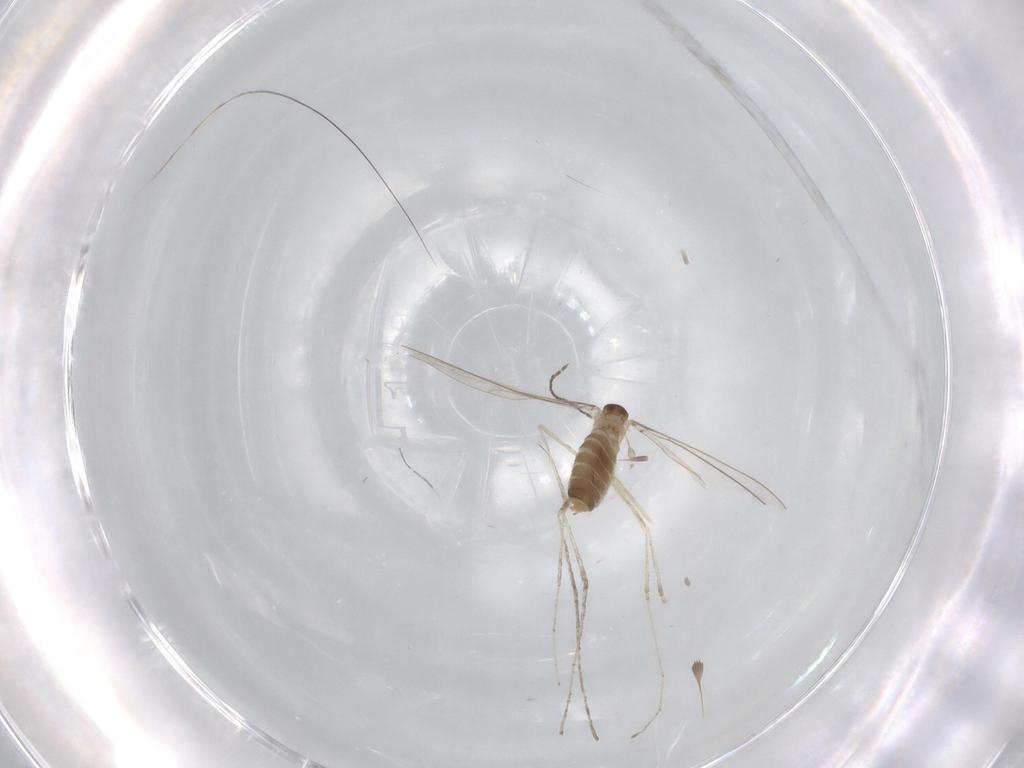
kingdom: Animalia
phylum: Arthropoda
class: Insecta
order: Diptera
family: Cecidomyiidae
